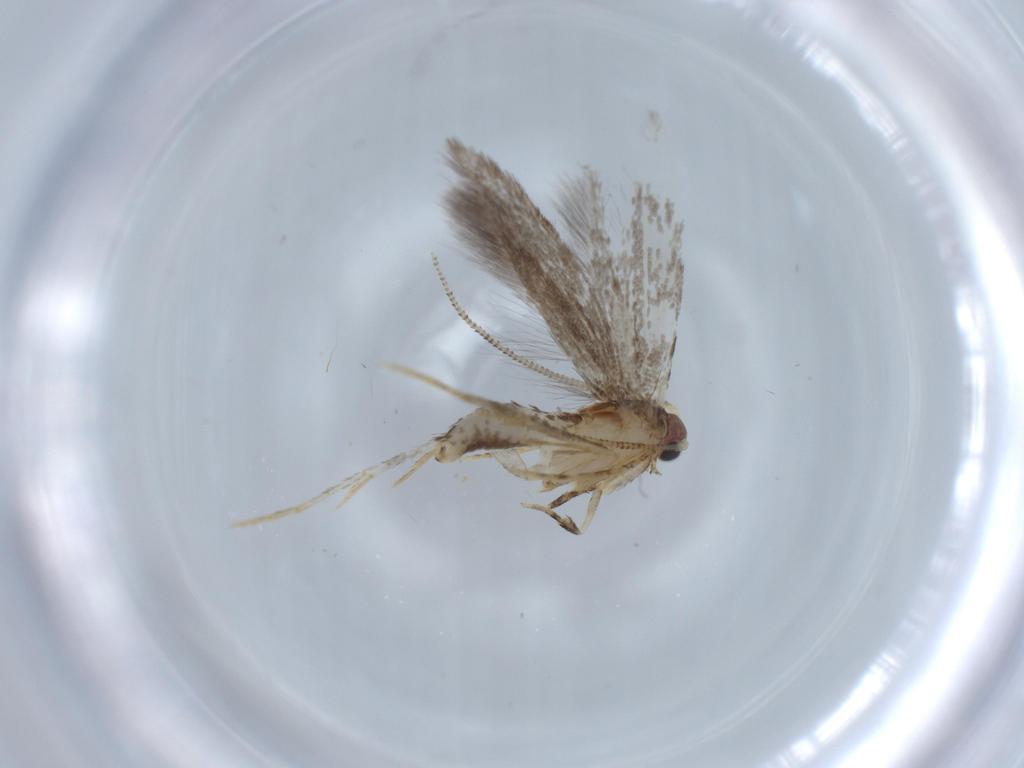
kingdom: Animalia
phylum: Arthropoda
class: Insecta
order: Lepidoptera
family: Tineidae
